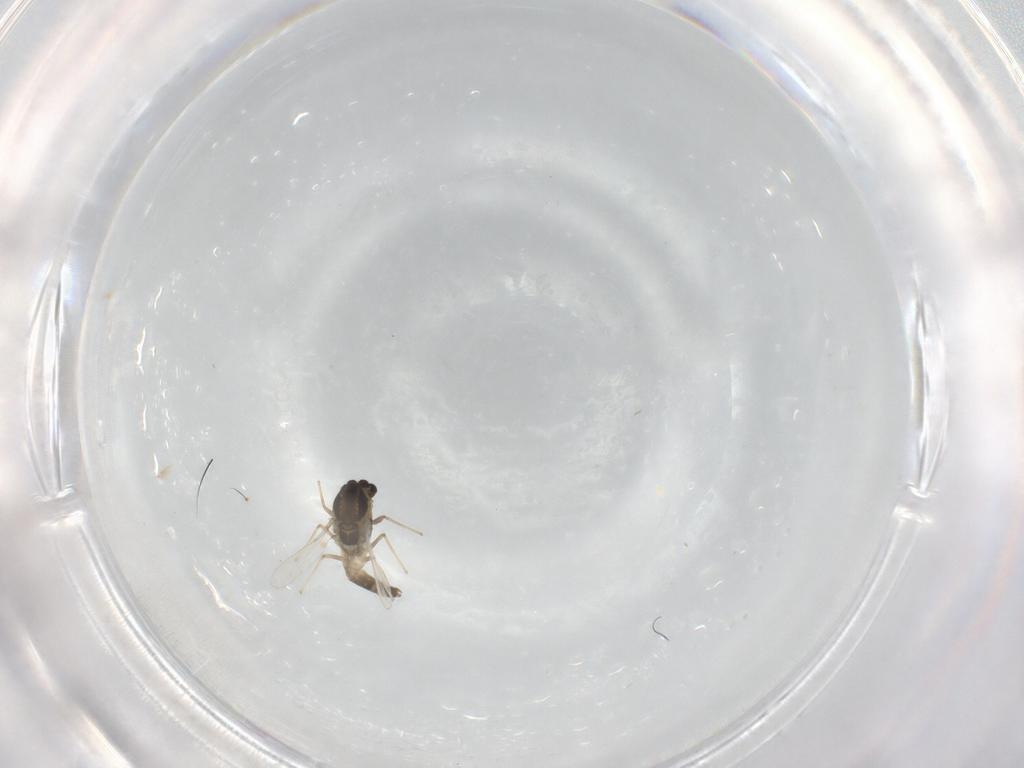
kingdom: Animalia
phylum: Arthropoda
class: Insecta
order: Diptera
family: Chironomidae
